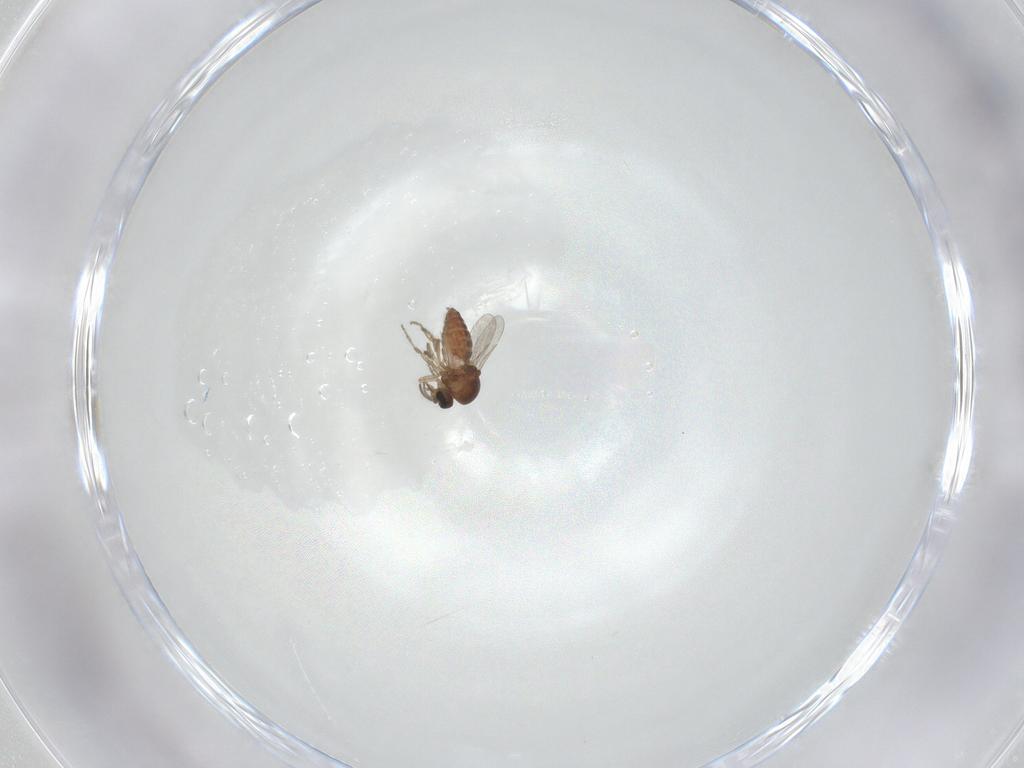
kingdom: Animalia
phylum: Arthropoda
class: Insecta
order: Diptera
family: Ceratopogonidae
